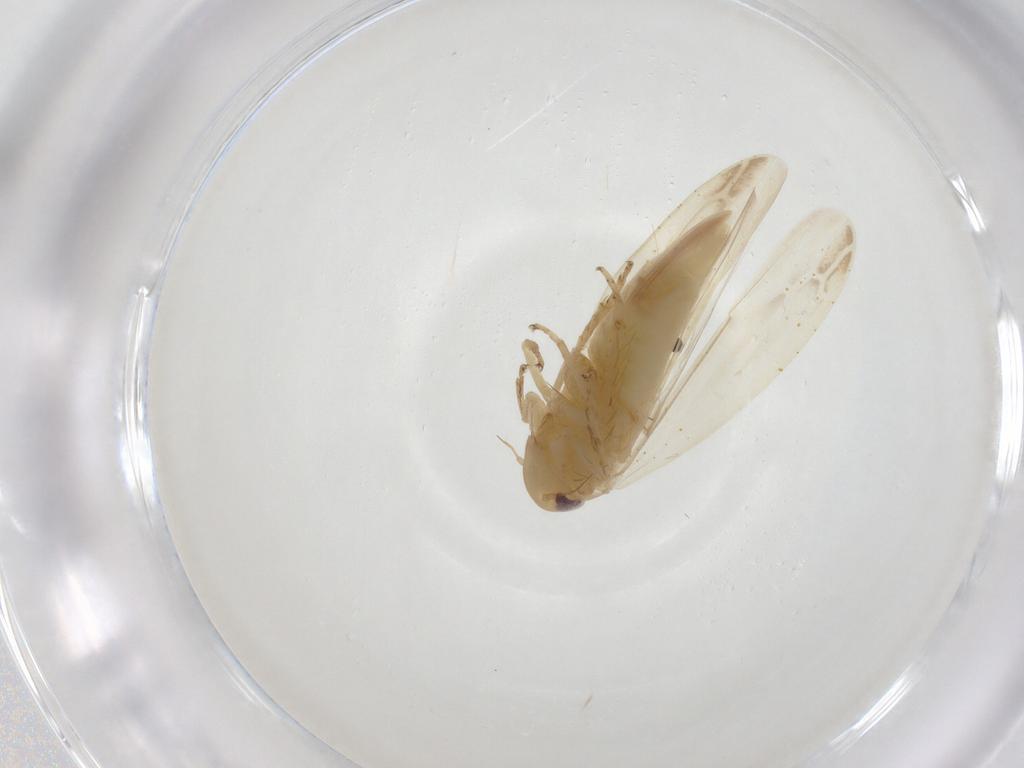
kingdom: Animalia
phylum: Arthropoda
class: Insecta
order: Hemiptera
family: Cicadellidae
